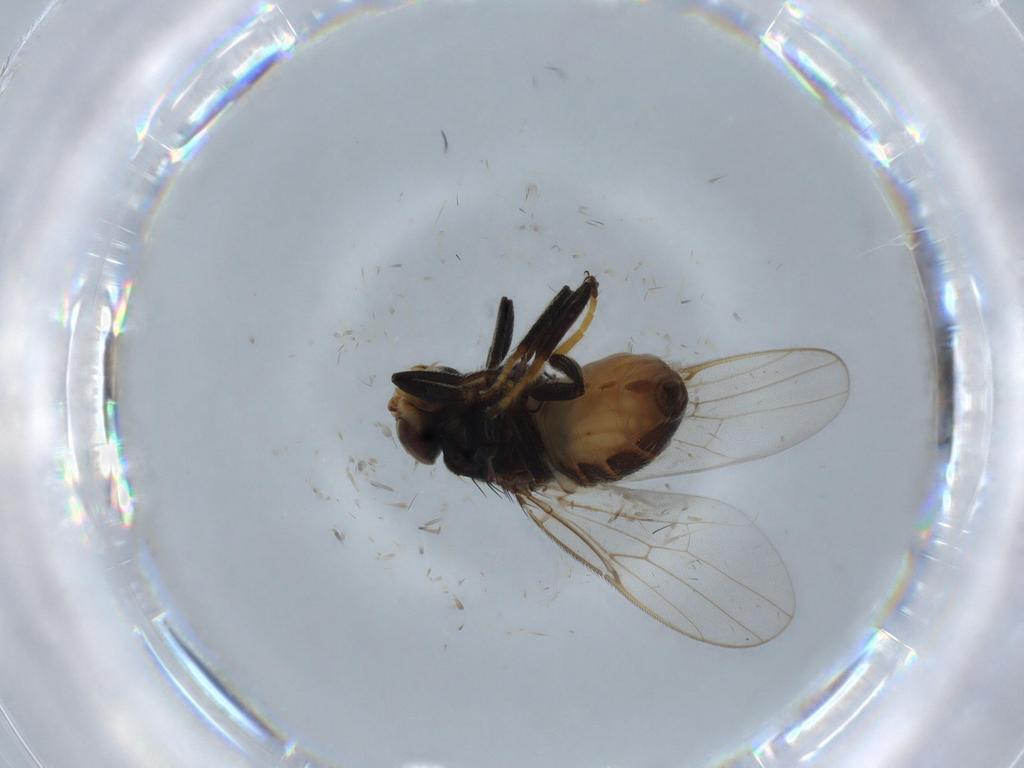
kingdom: Animalia
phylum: Arthropoda
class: Insecta
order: Diptera
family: Chloropidae
